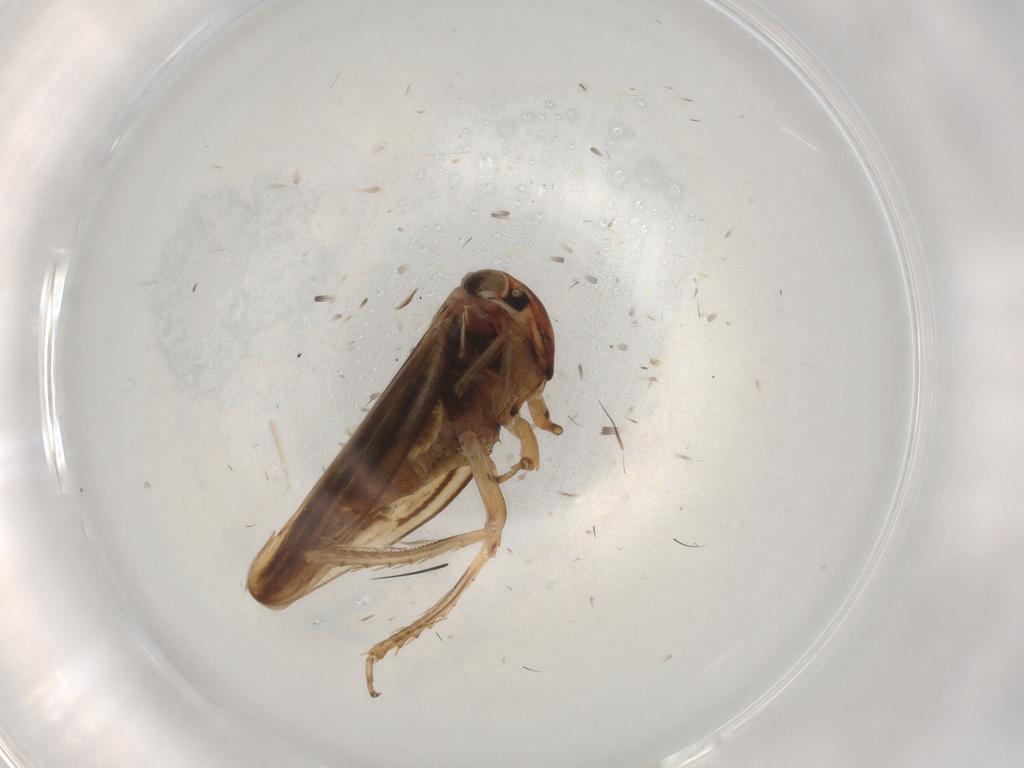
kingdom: Animalia
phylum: Arthropoda
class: Insecta
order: Hemiptera
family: Cicadellidae
